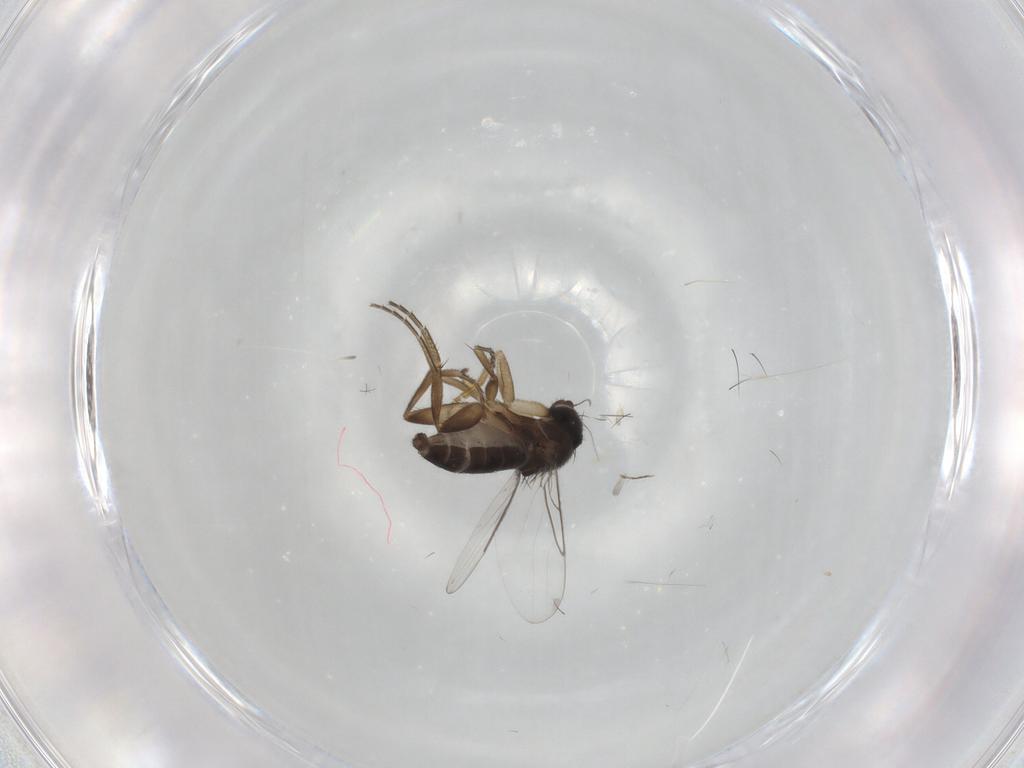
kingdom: Animalia
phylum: Arthropoda
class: Insecta
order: Diptera
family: Phoridae
